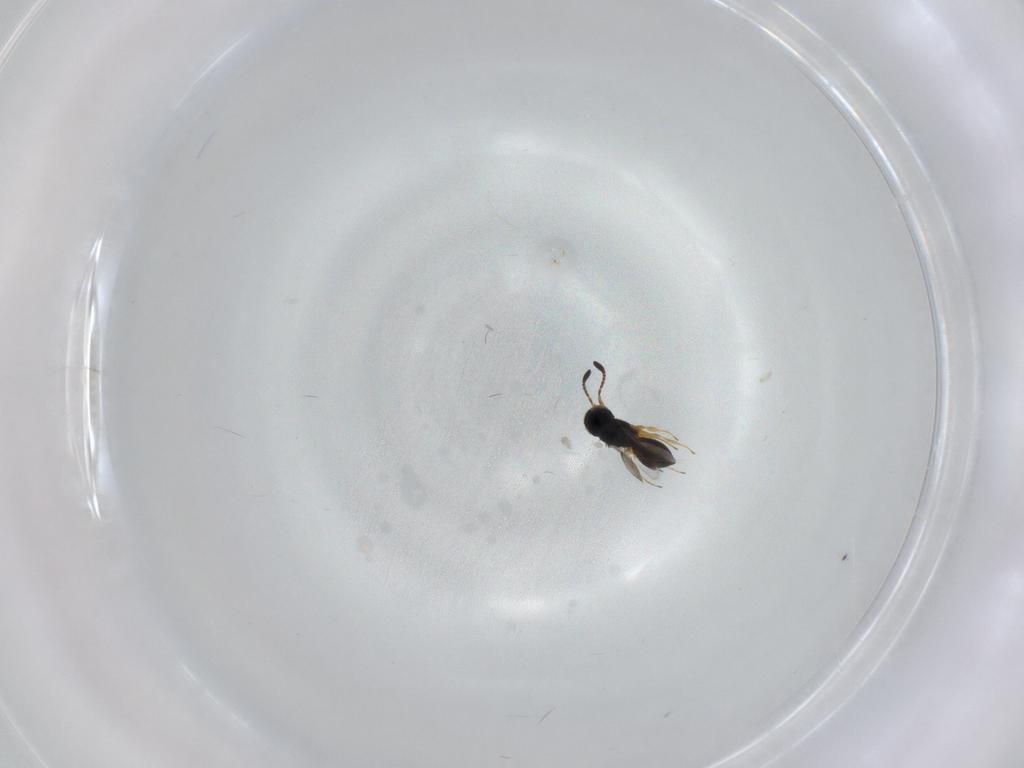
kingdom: Animalia
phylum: Arthropoda
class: Insecta
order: Hymenoptera
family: Scelionidae
